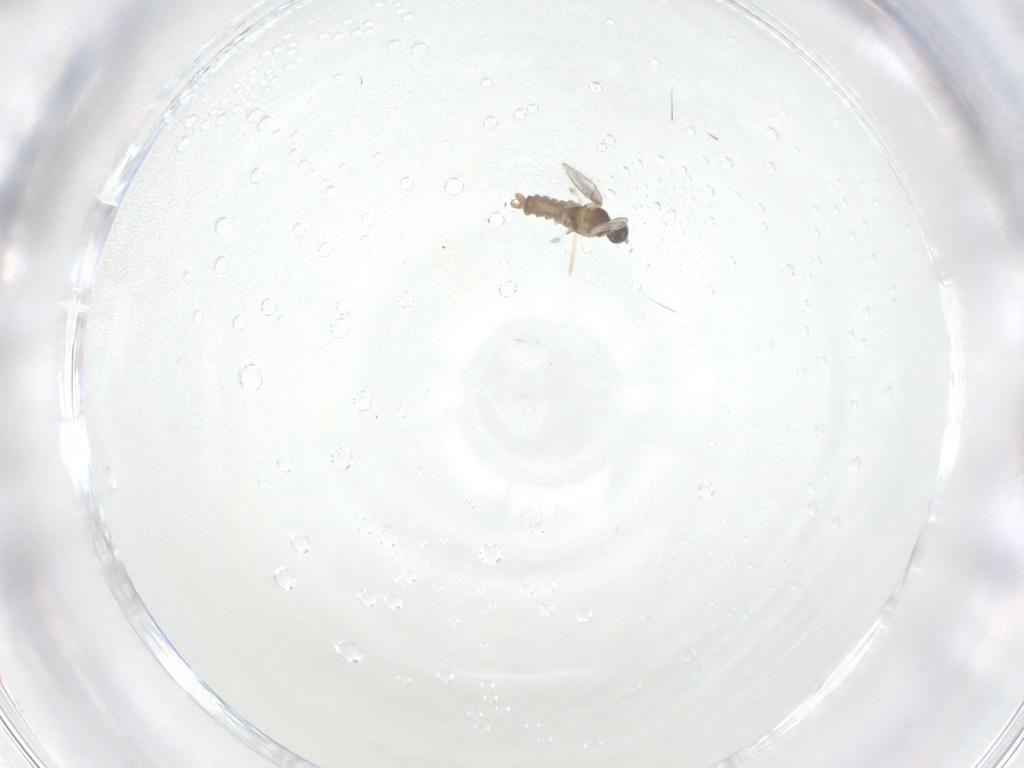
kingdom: Animalia
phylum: Arthropoda
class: Insecta
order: Diptera
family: Cecidomyiidae
